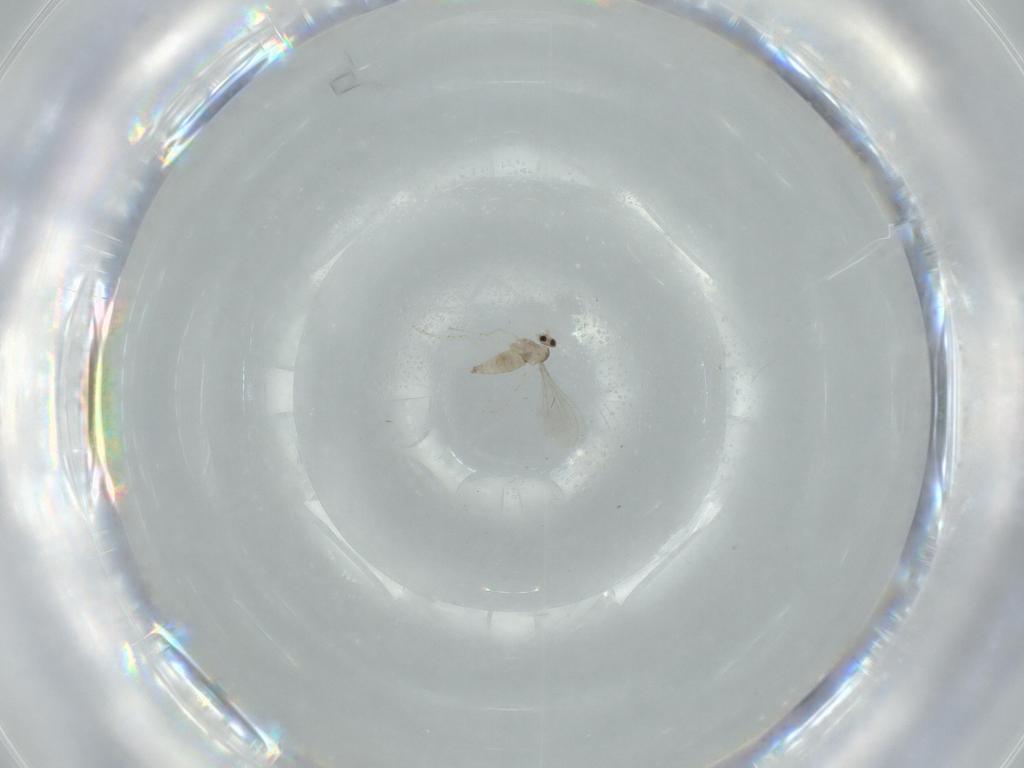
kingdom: Animalia
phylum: Arthropoda
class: Insecta
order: Diptera
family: Cecidomyiidae
